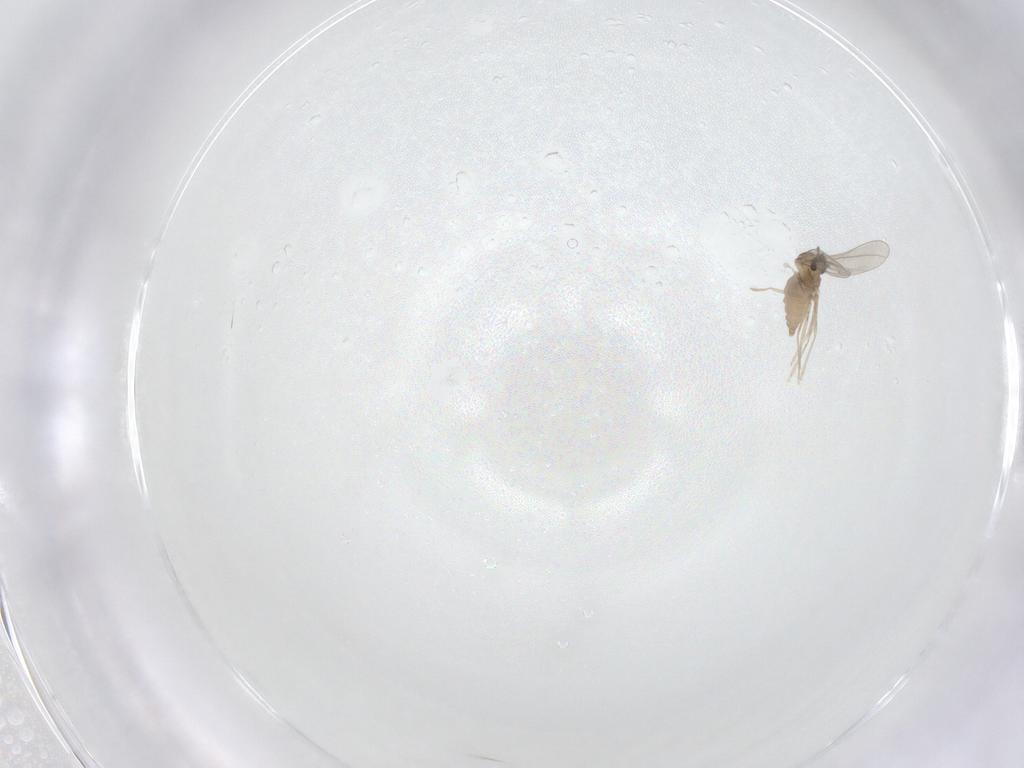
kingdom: Animalia
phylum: Arthropoda
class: Insecta
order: Diptera
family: Cecidomyiidae
